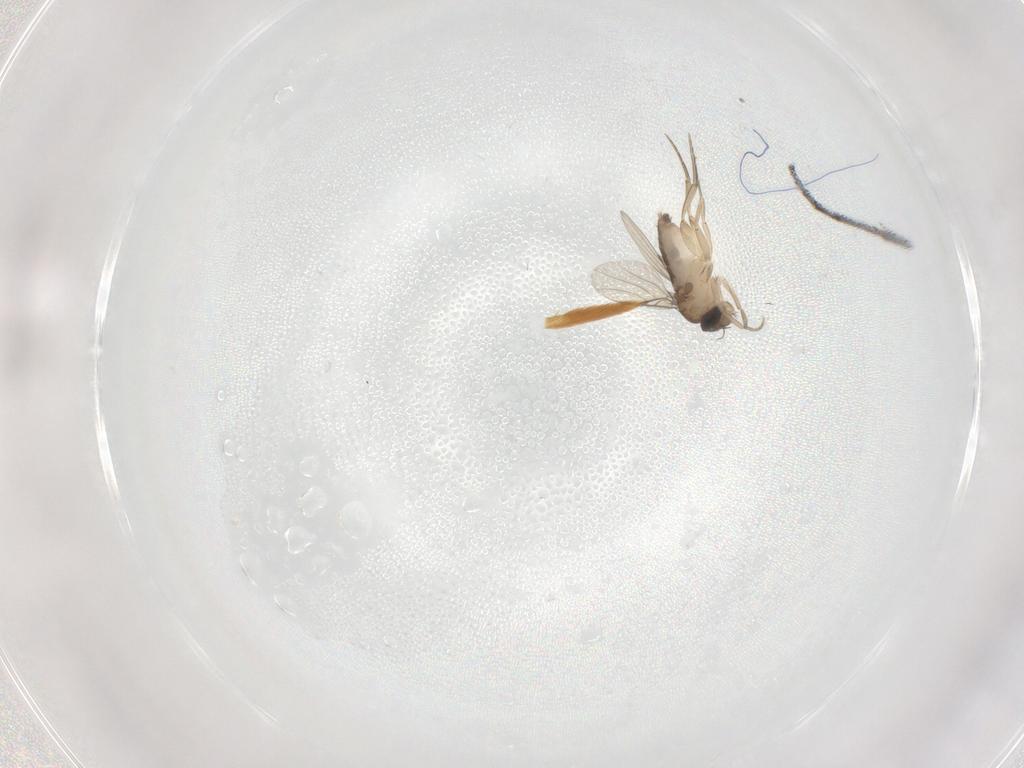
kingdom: Animalia
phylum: Arthropoda
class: Insecta
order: Diptera
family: Phoridae
